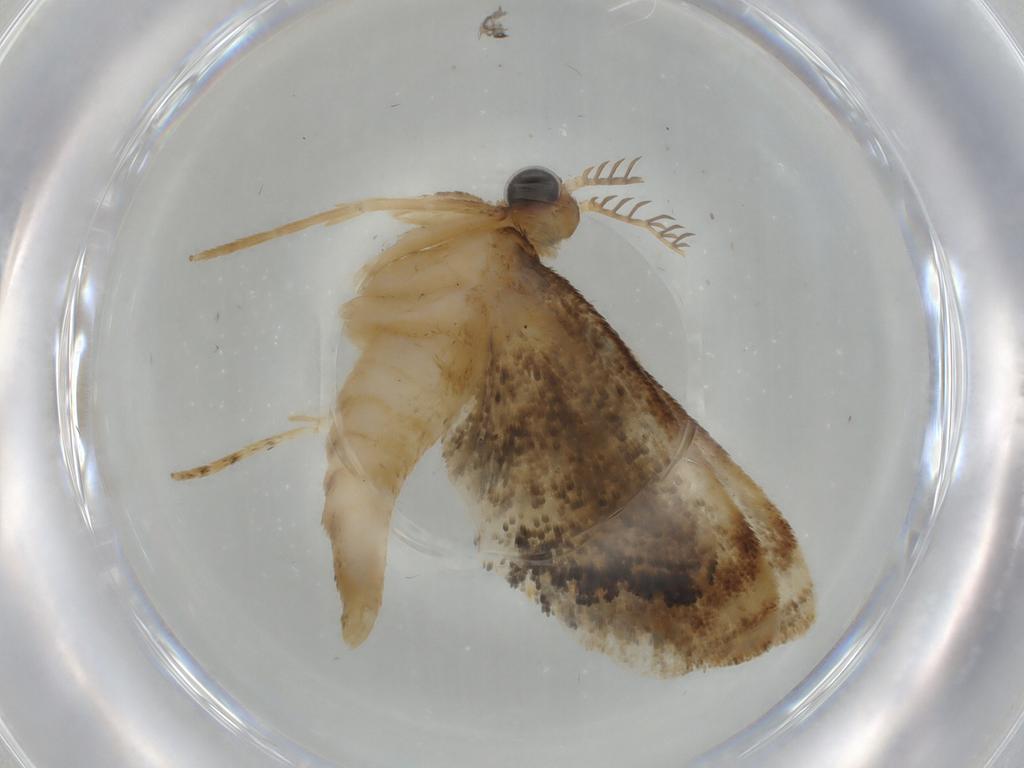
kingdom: Animalia
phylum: Arthropoda
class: Insecta
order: Lepidoptera
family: Gelechiidae
